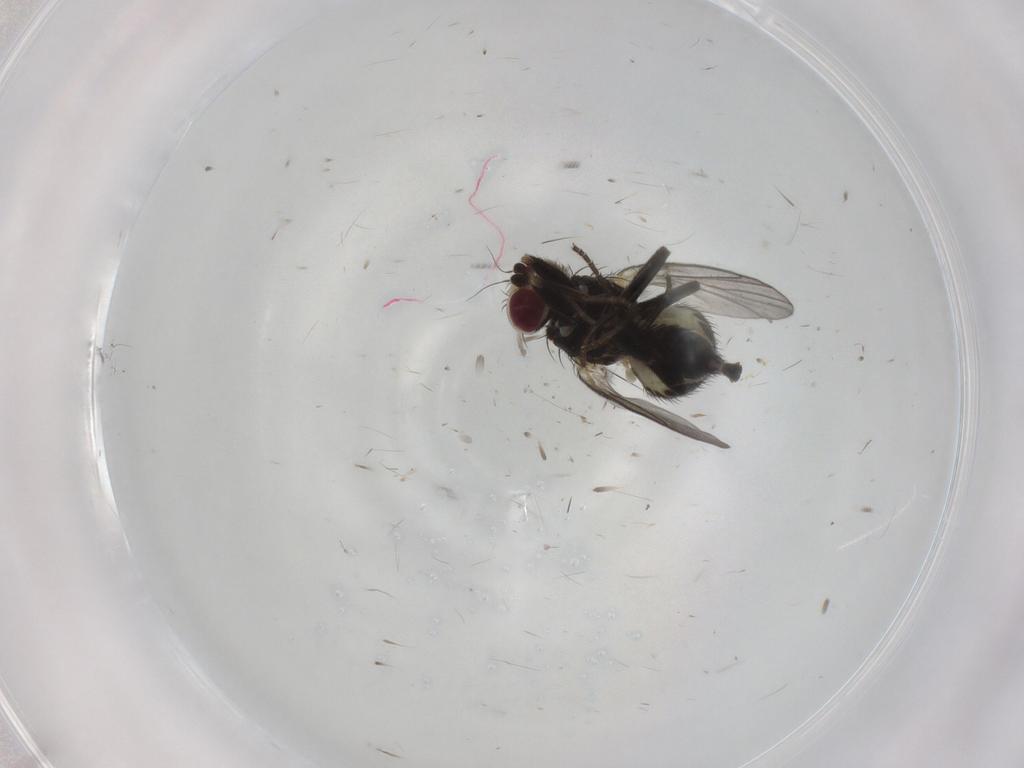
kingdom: Animalia
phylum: Arthropoda
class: Insecta
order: Diptera
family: Agromyzidae
